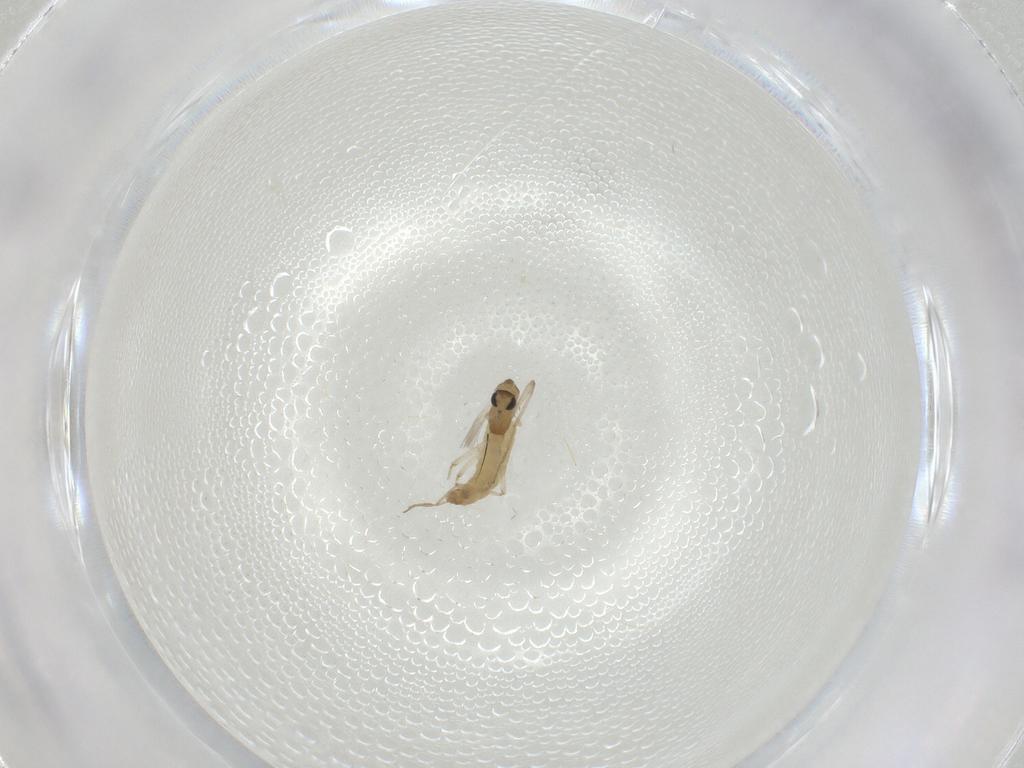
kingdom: Animalia
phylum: Arthropoda
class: Insecta
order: Diptera
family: Chironomidae
